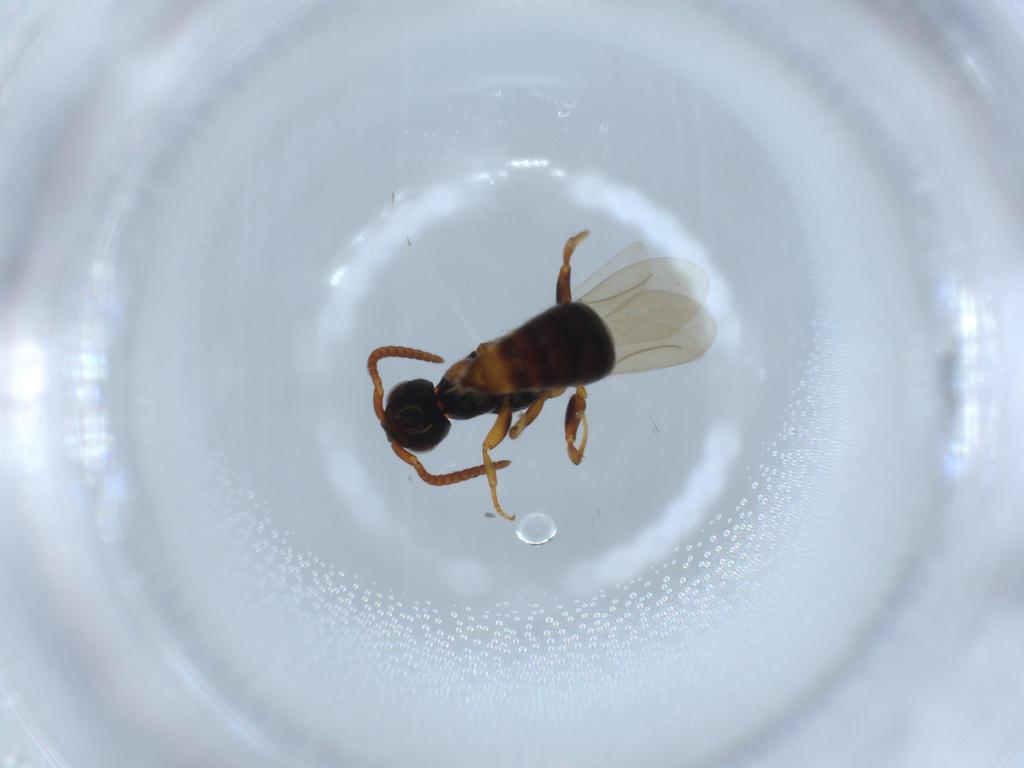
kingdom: Animalia
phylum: Arthropoda
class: Insecta
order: Hymenoptera
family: Bethylidae
